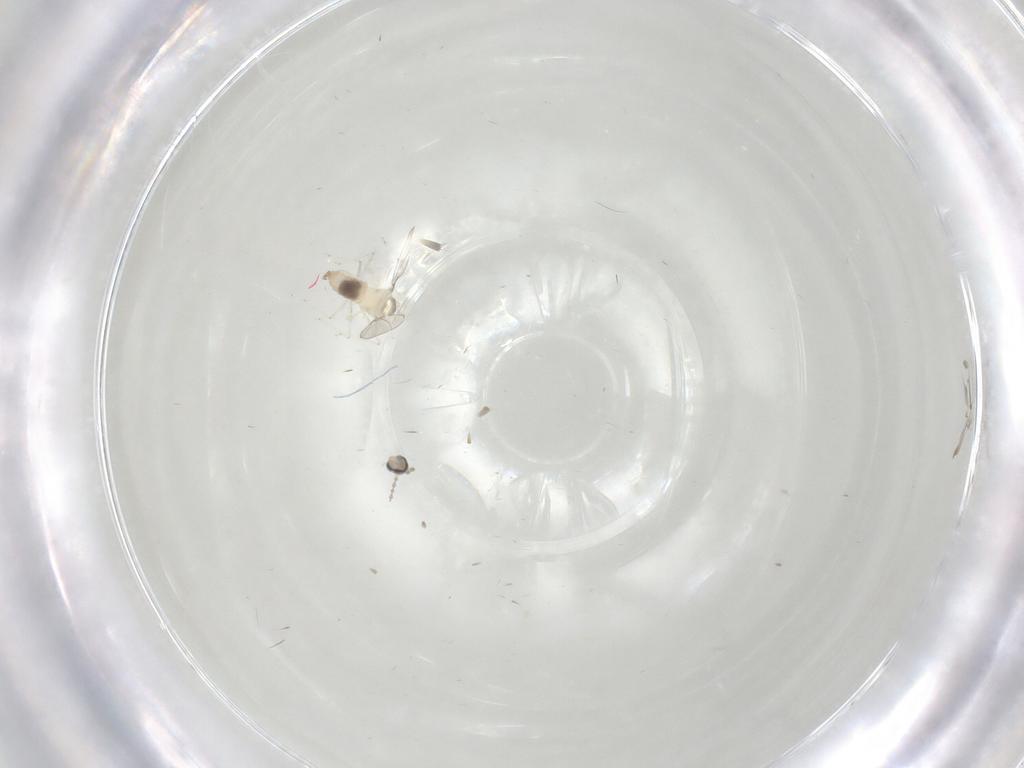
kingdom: Animalia
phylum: Arthropoda
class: Insecta
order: Diptera
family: Cecidomyiidae
